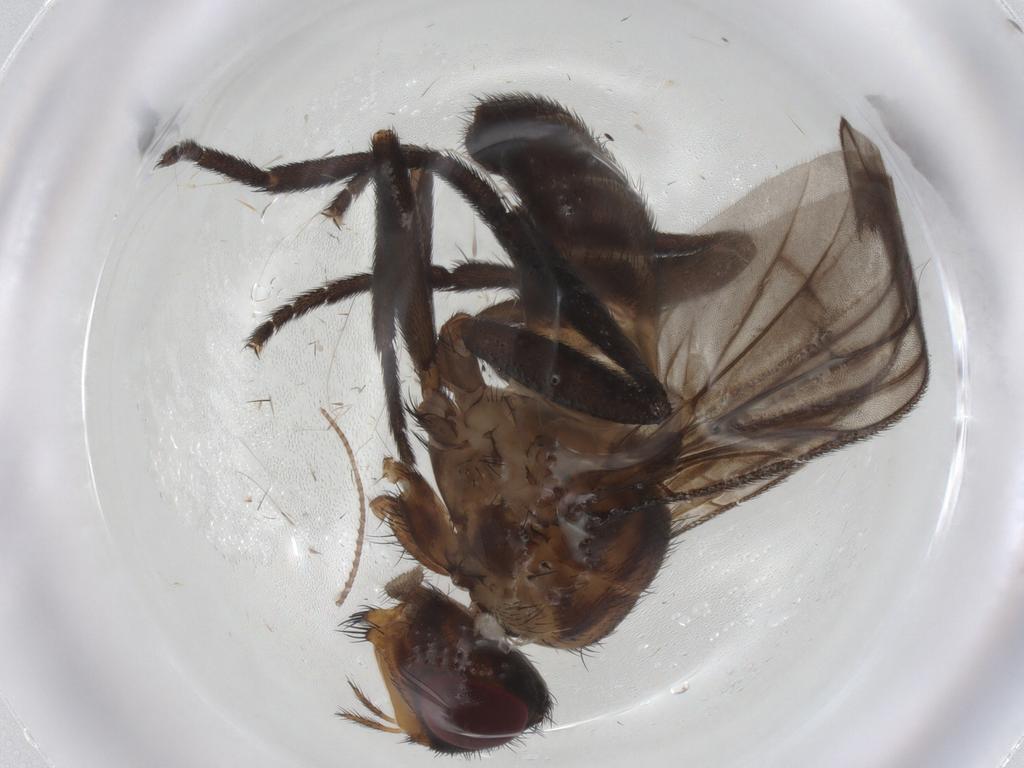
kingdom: Animalia
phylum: Arthropoda
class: Insecta
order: Diptera
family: Calliphoridae
